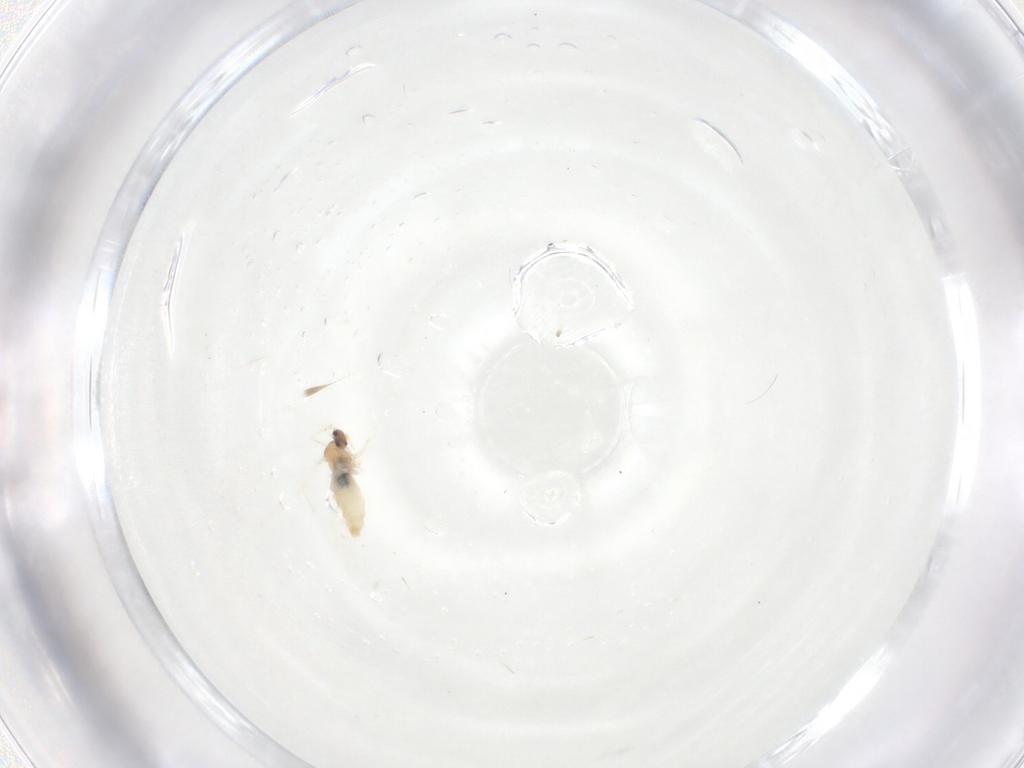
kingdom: Animalia
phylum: Arthropoda
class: Insecta
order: Diptera
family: Cecidomyiidae
